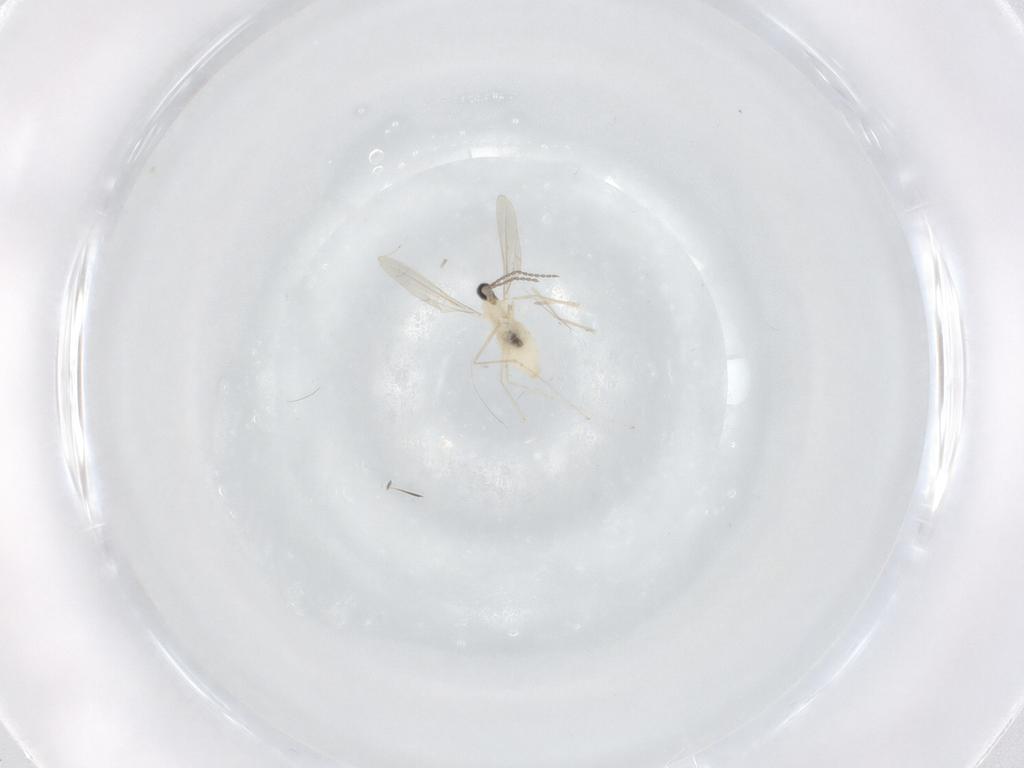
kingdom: Animalia
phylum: Arthropoda
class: Insecta
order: Diptera
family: Cecidomyiidae
